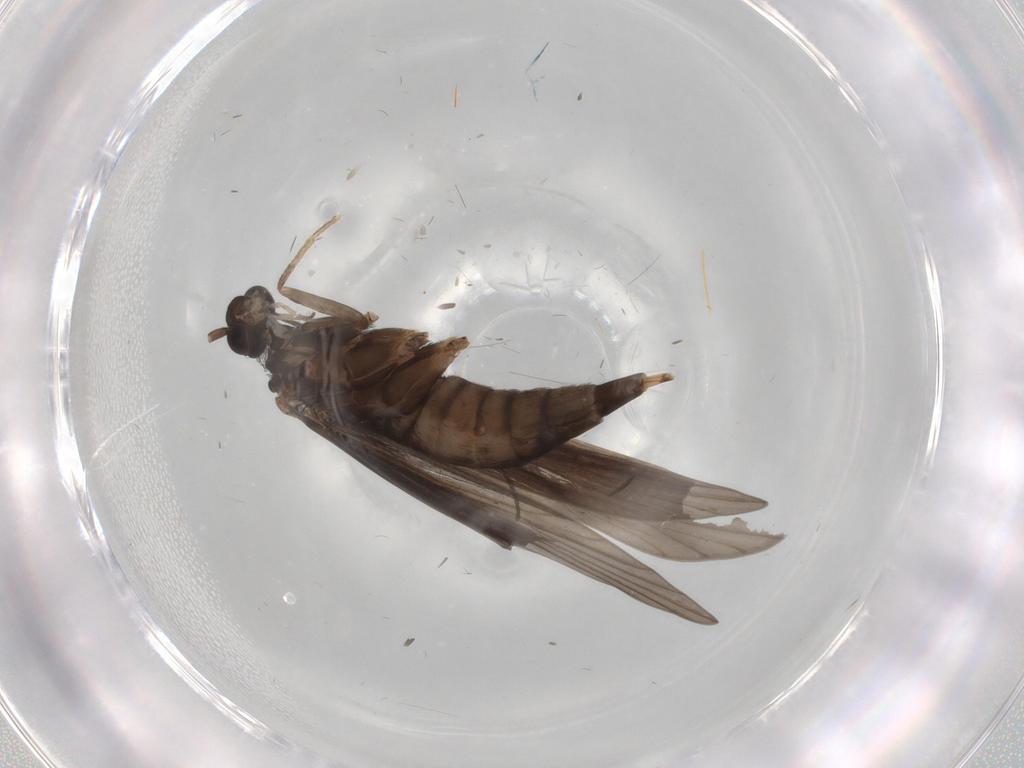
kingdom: Animalia
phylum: Arthropoda
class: Insecta
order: Trichoptera
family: Xiphocentronidae
